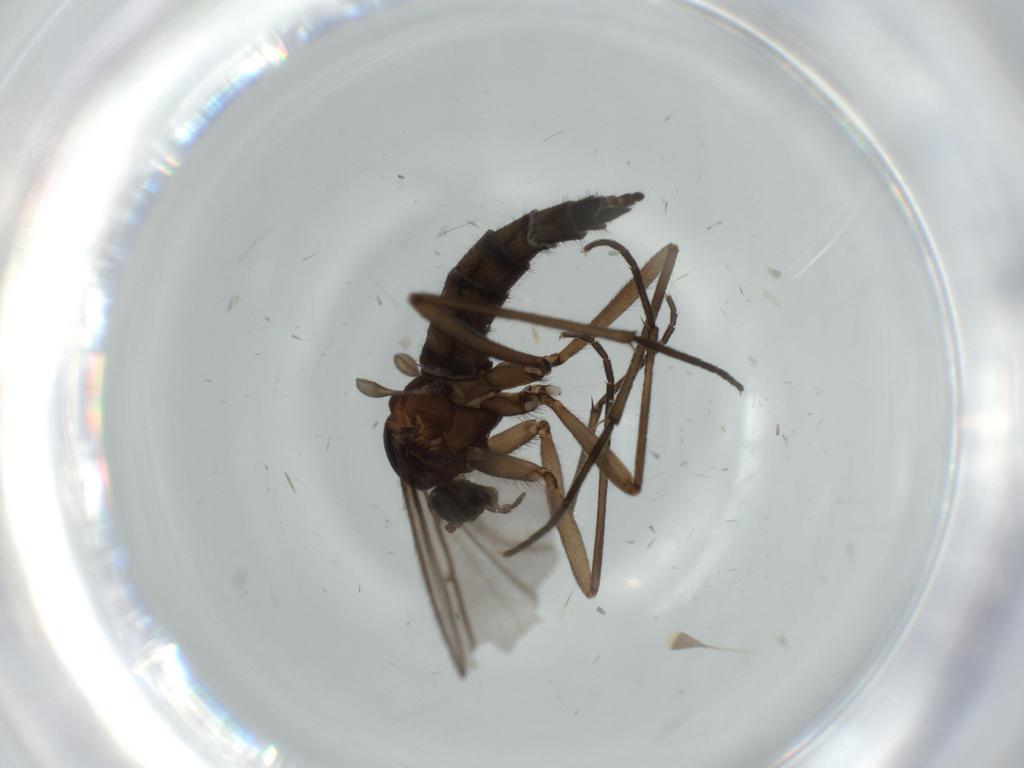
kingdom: Animalia
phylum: Arthropoda
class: Insecta
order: Diptera
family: Sciaridae
